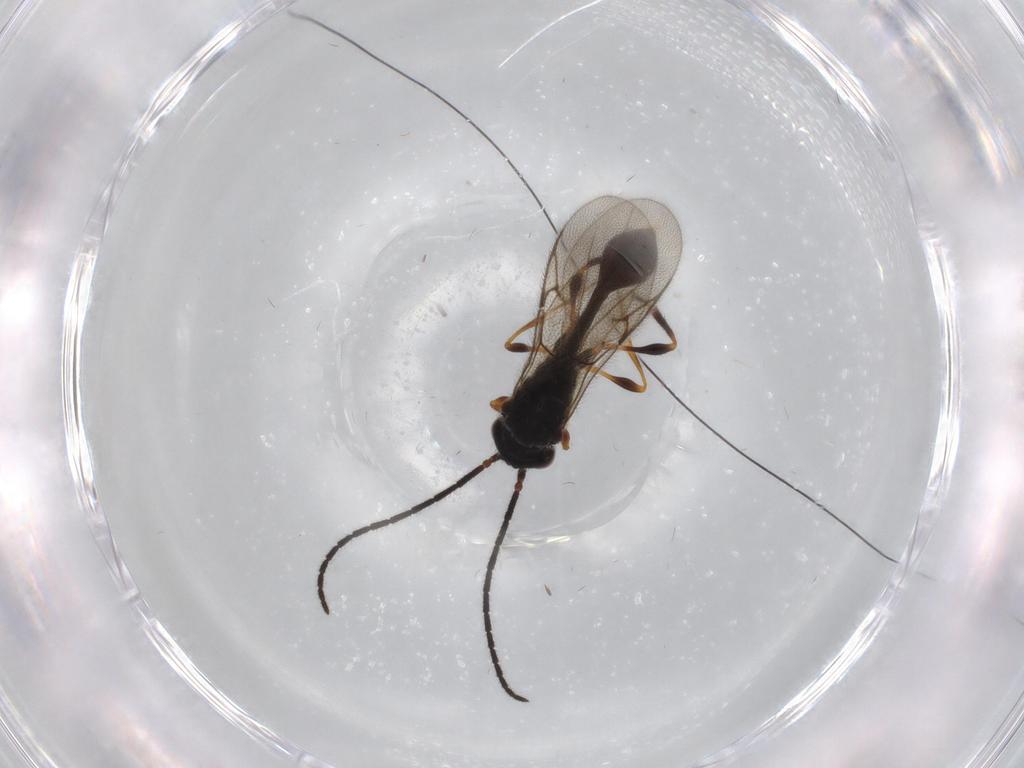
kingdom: Animalia
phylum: Arthropoda
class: Insecta
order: Hymenoptera
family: Diapriidae
